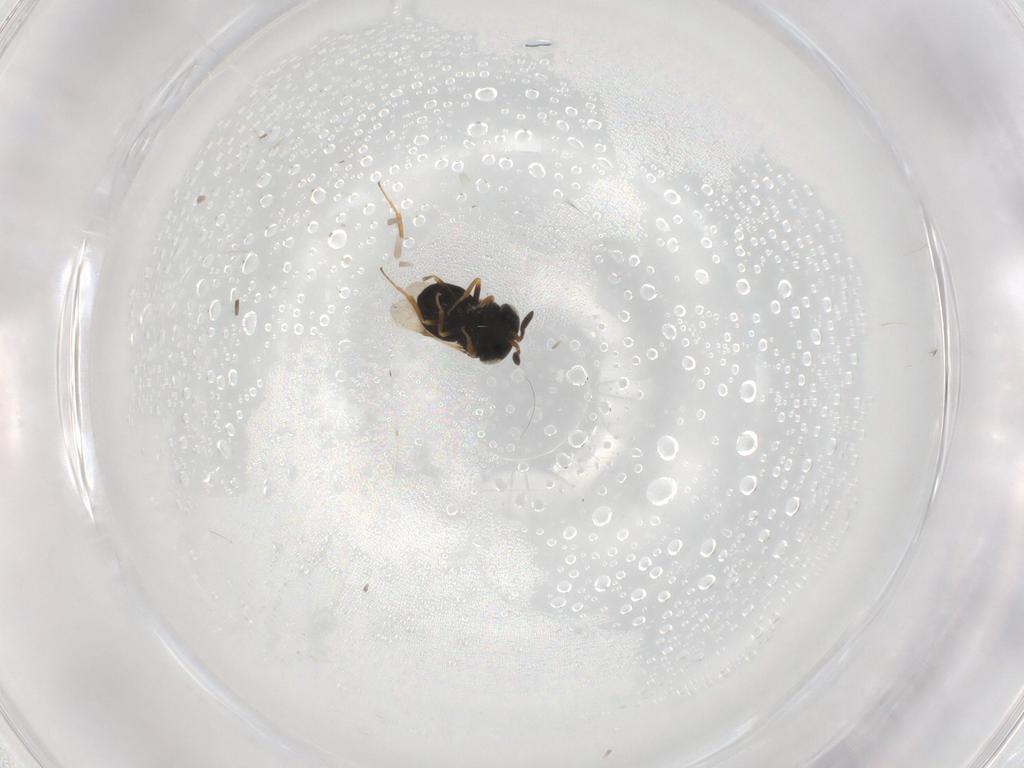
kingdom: Animalia
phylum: Arthropoda
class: Insecta
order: Hymenoptera
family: Scelionidae
